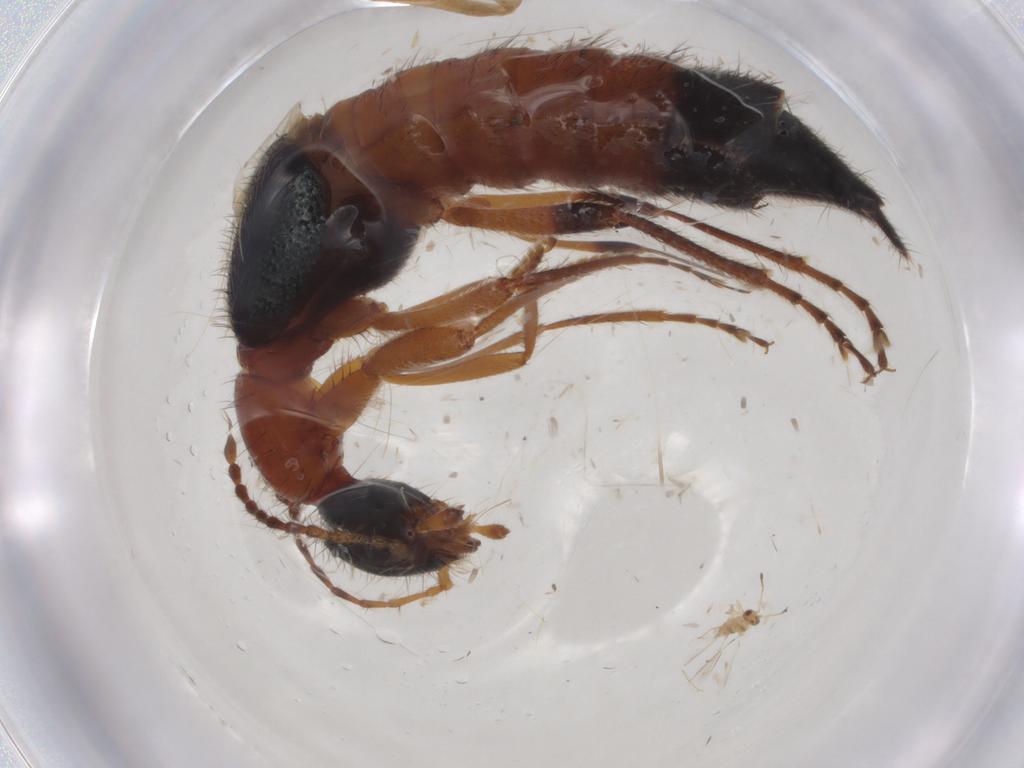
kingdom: Animalia
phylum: Arthropoda
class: Insecta
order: Coleoptera
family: Staphylinidae
